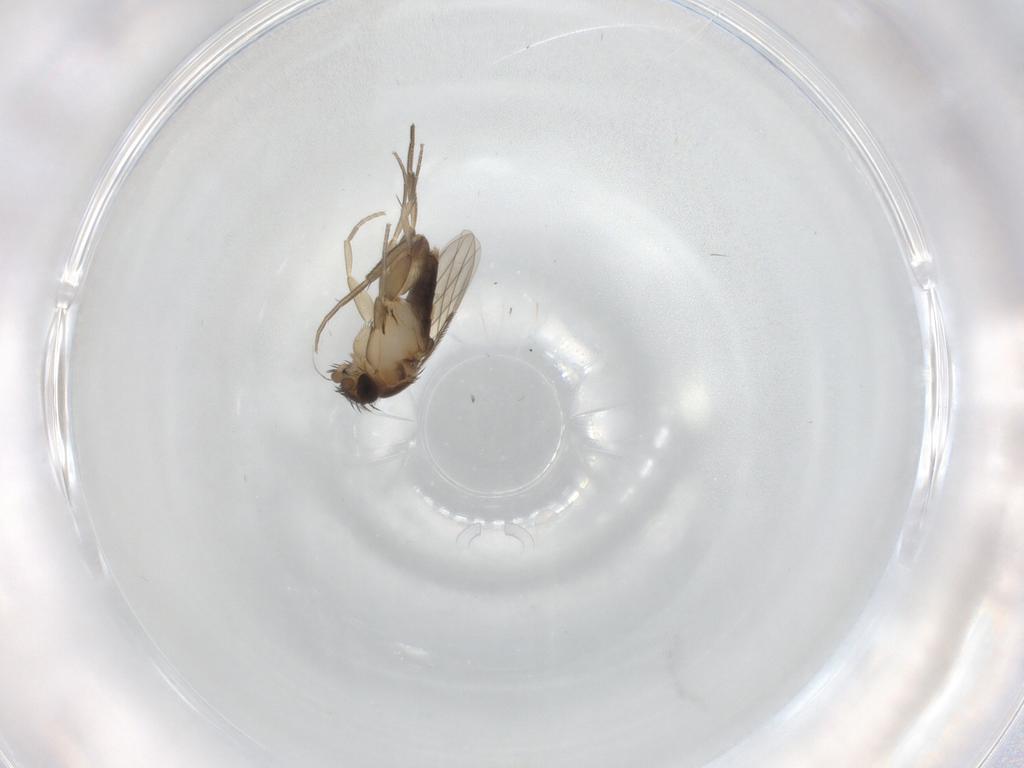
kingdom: Animalia
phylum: Arthropoda
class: Insecta
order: Diptera
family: Phoridae
